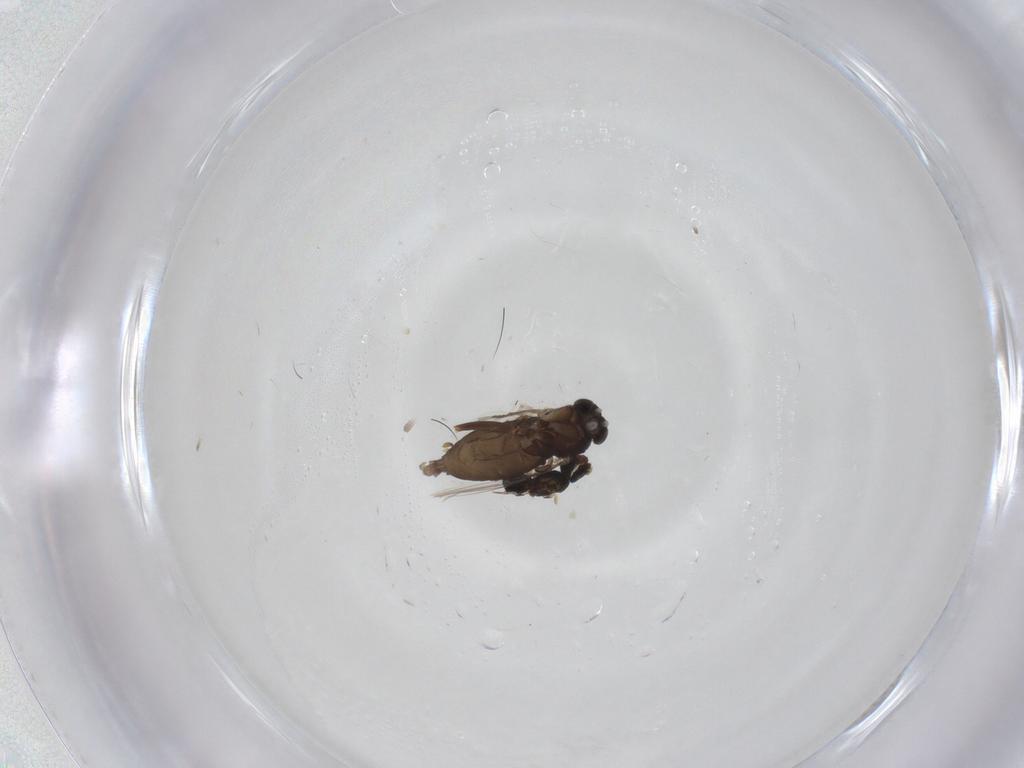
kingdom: Animalia
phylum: Arthropoda
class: Insecta
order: Diptera
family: Phoridae
